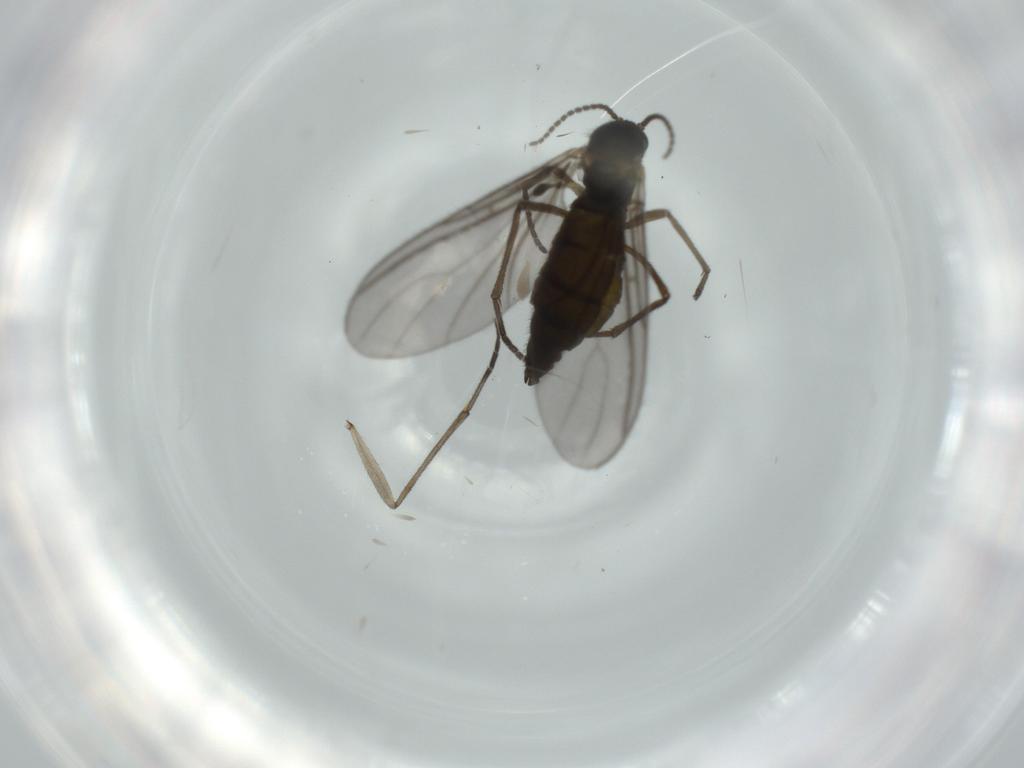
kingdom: Animalia
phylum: Arthropoda
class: Insecta
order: Diptera
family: Sciaridae
